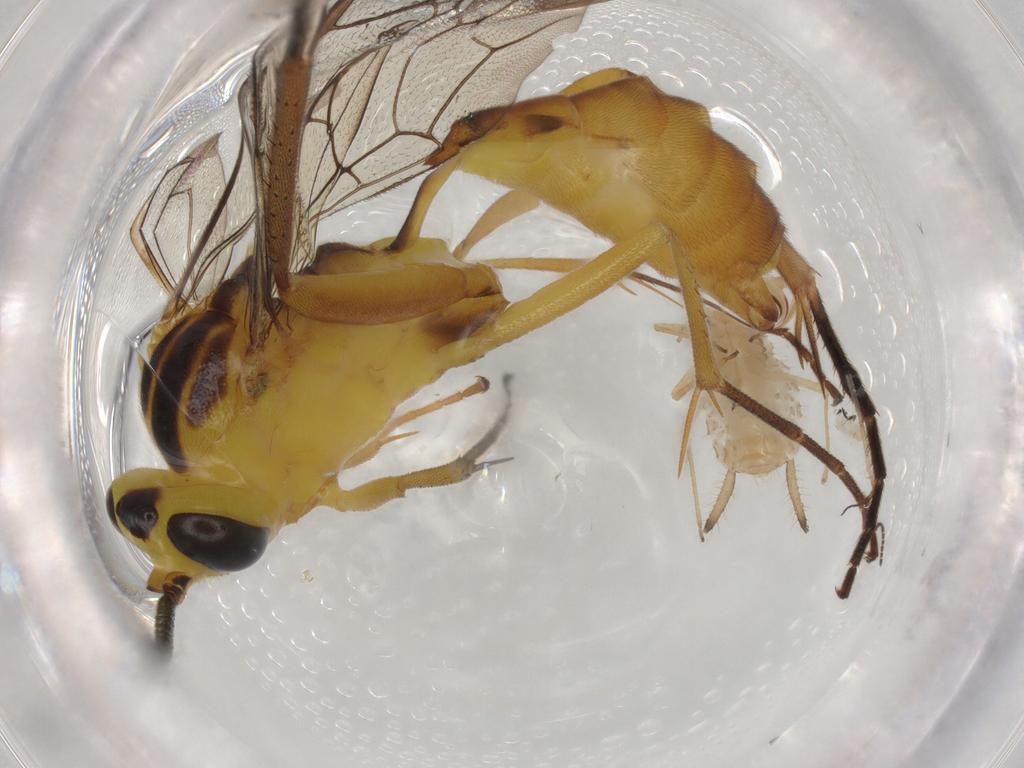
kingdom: Animalia
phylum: Arthropoda
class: Insecta
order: Hymenoptera
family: Ichneumonidae
